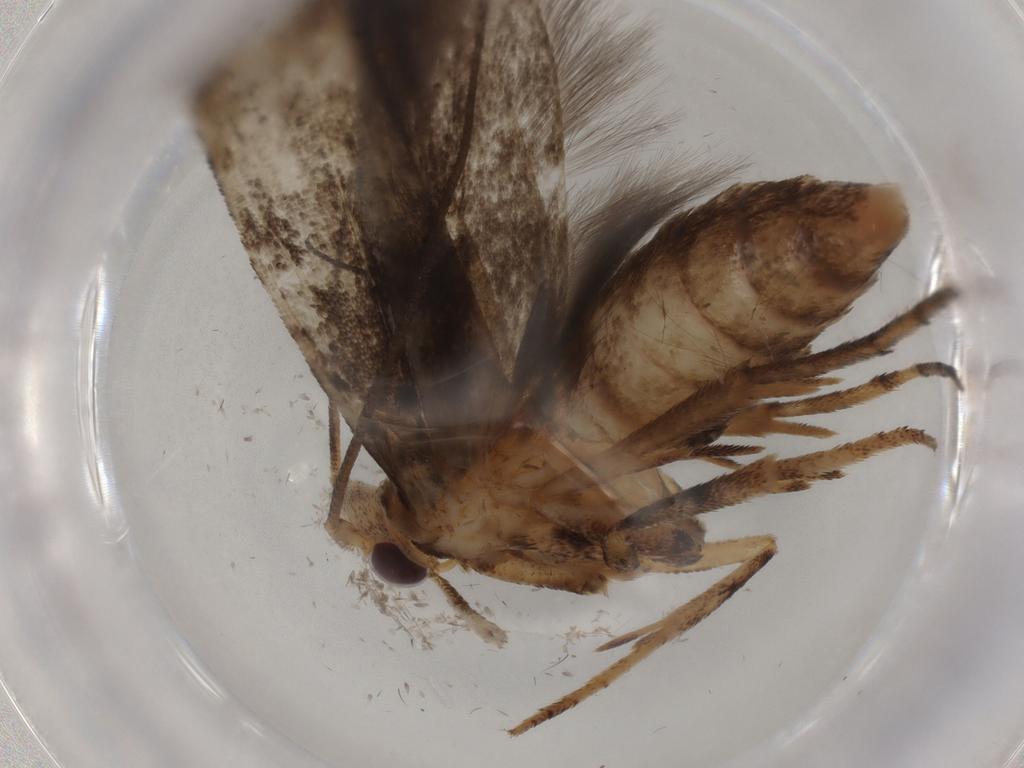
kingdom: Animalia
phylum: Arthropoda
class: Insecta
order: Lepidoptera
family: Yponomeutidae
